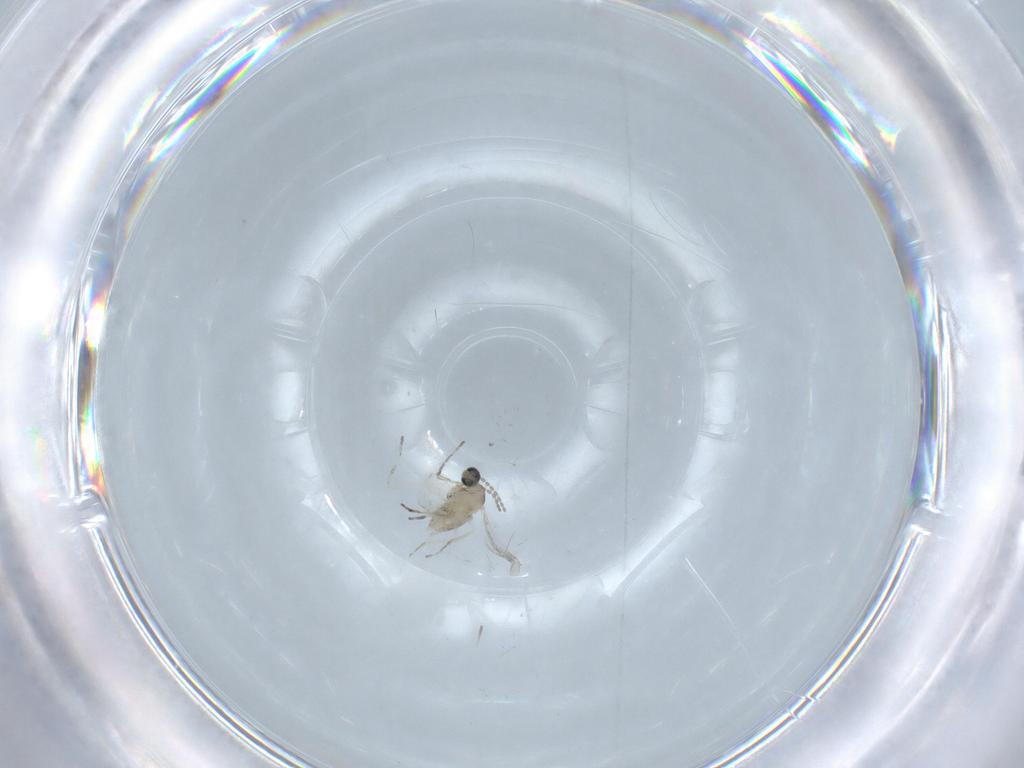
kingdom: Animalia
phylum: Arthropoda
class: Insecta
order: Diptera
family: Cecidomyiidae
